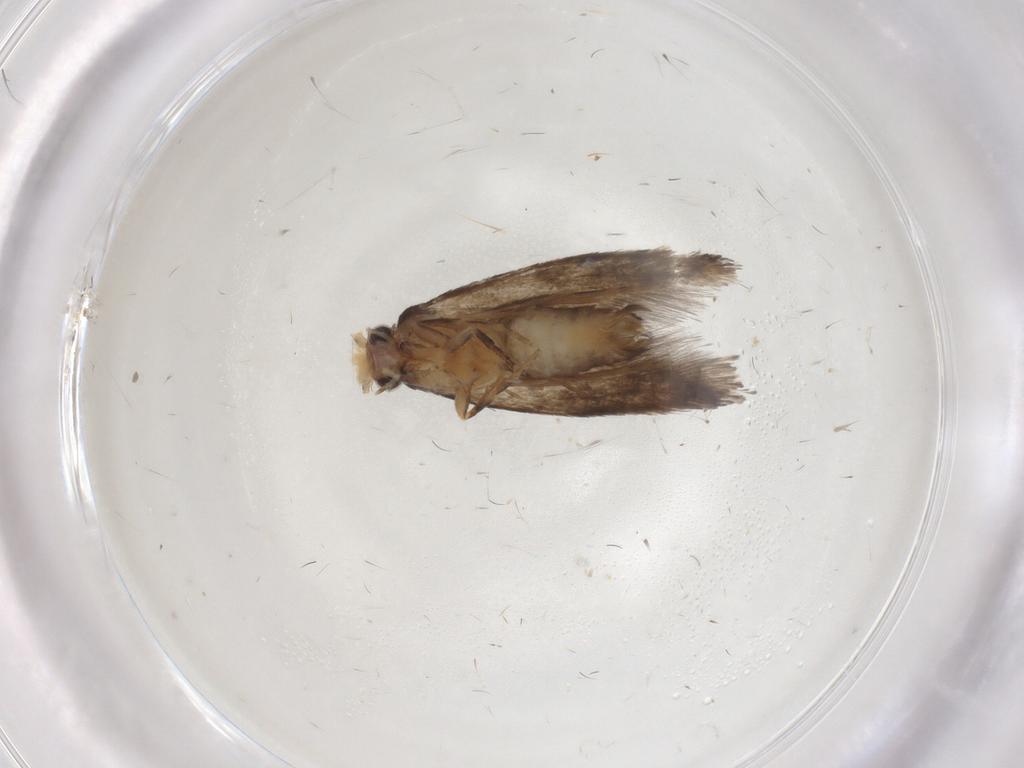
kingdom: Animalia
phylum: Arthropoda
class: Insecta
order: Lepidoptera
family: Tineidae
